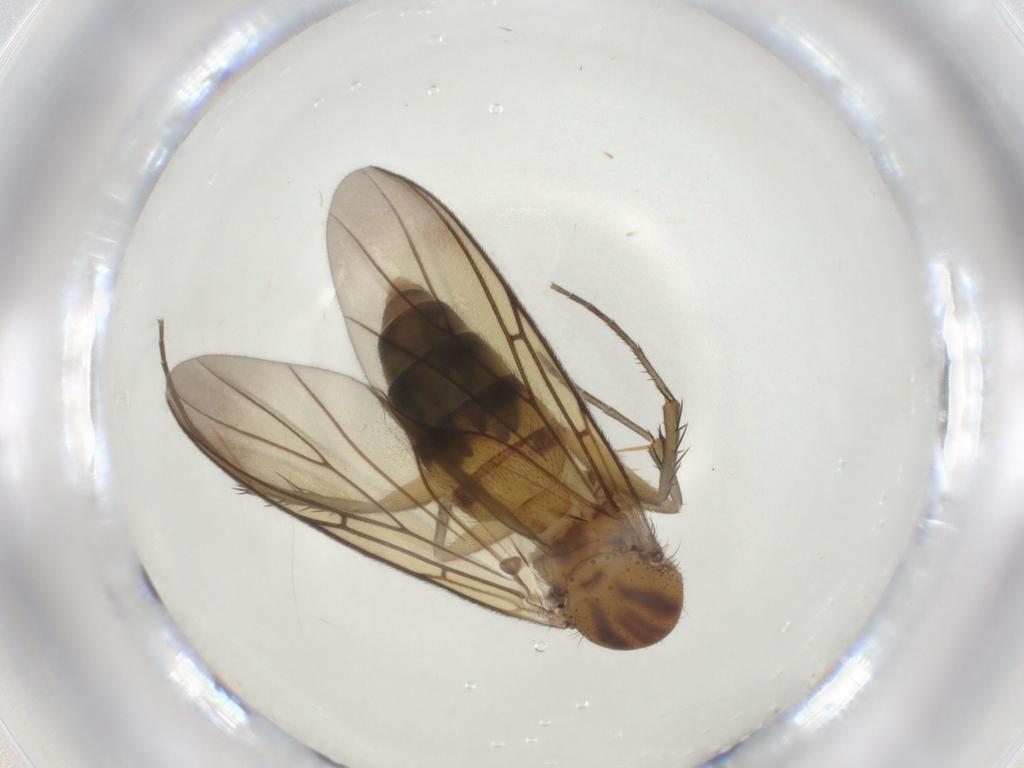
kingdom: Animalia
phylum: Arthropoda
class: Insecta
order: Diptera
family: Mycetophilidae
